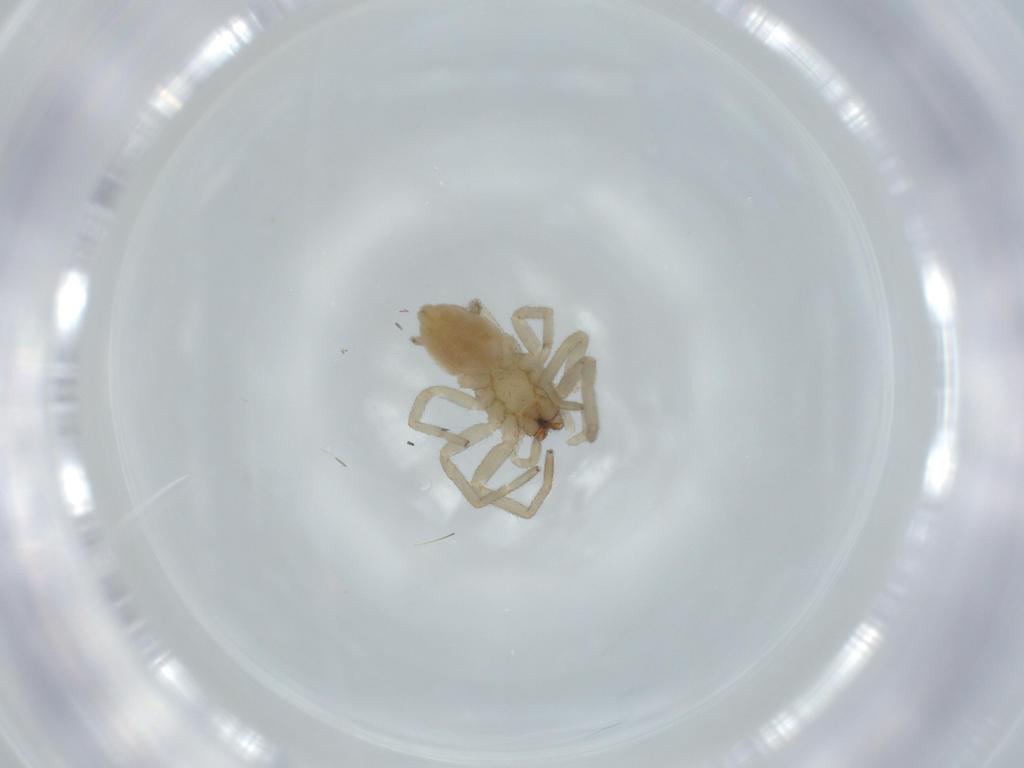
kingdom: Animalia
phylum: Arthropoda
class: Arachnida
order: Araneae
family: Trachelidae
